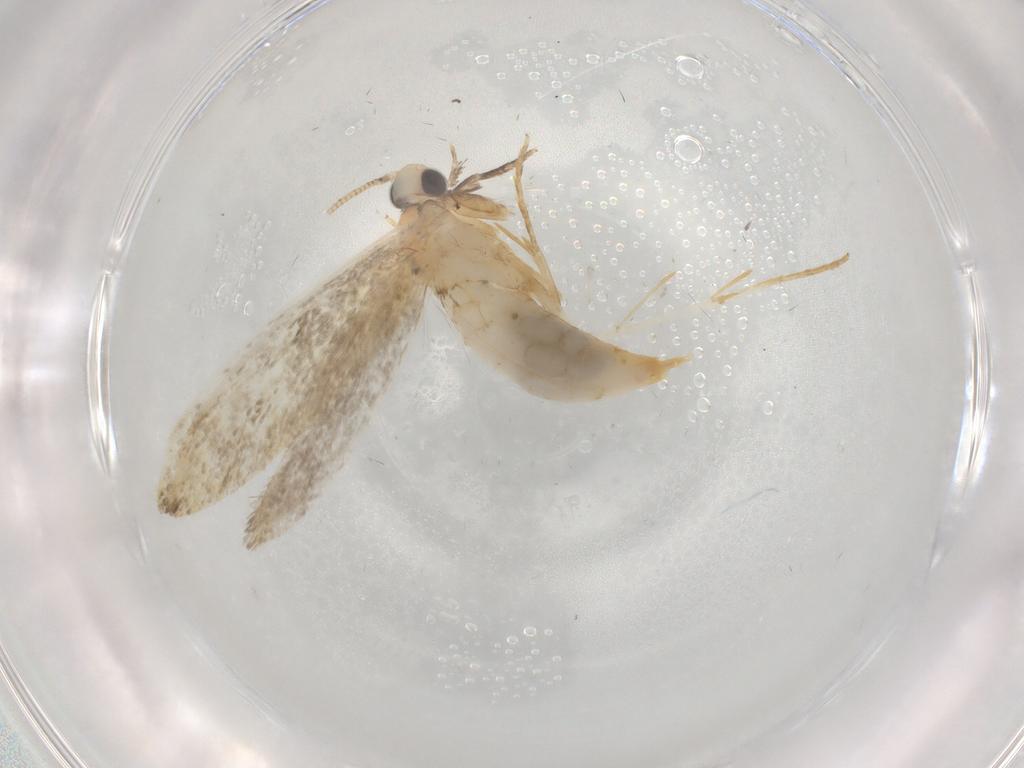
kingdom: Animalia
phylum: Arthropoda
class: Insecta
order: Lepidoptera
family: Tineidae
